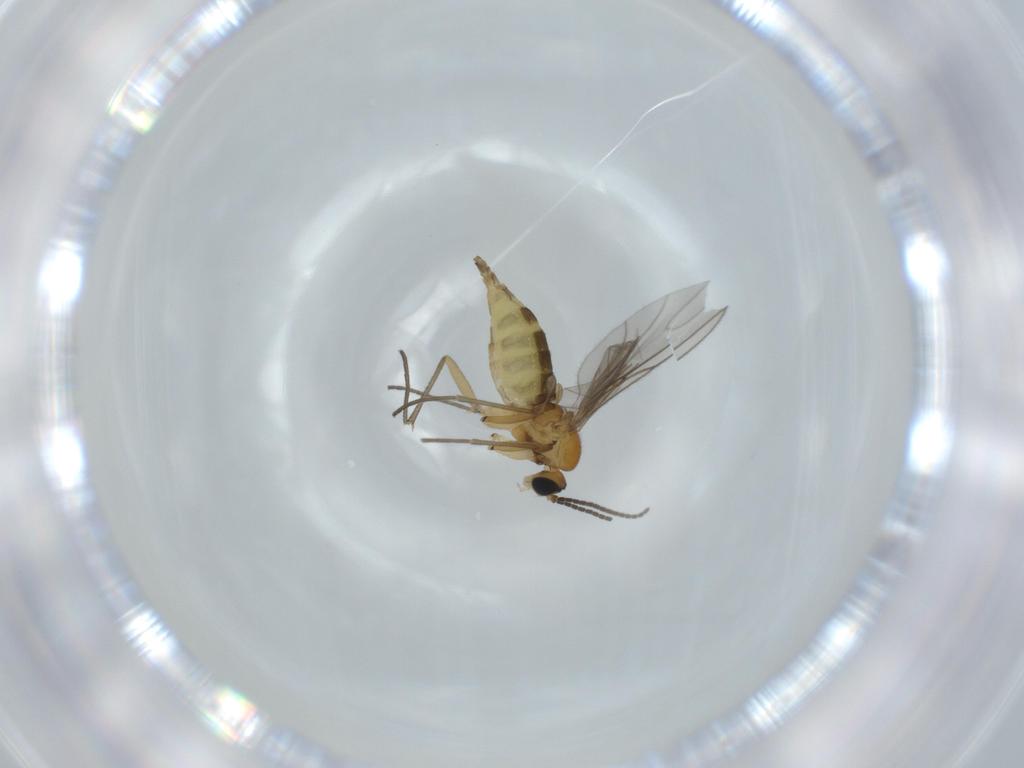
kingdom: Animalia
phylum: Arthropoda
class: Insecta
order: Diptera
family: Sciaridae
